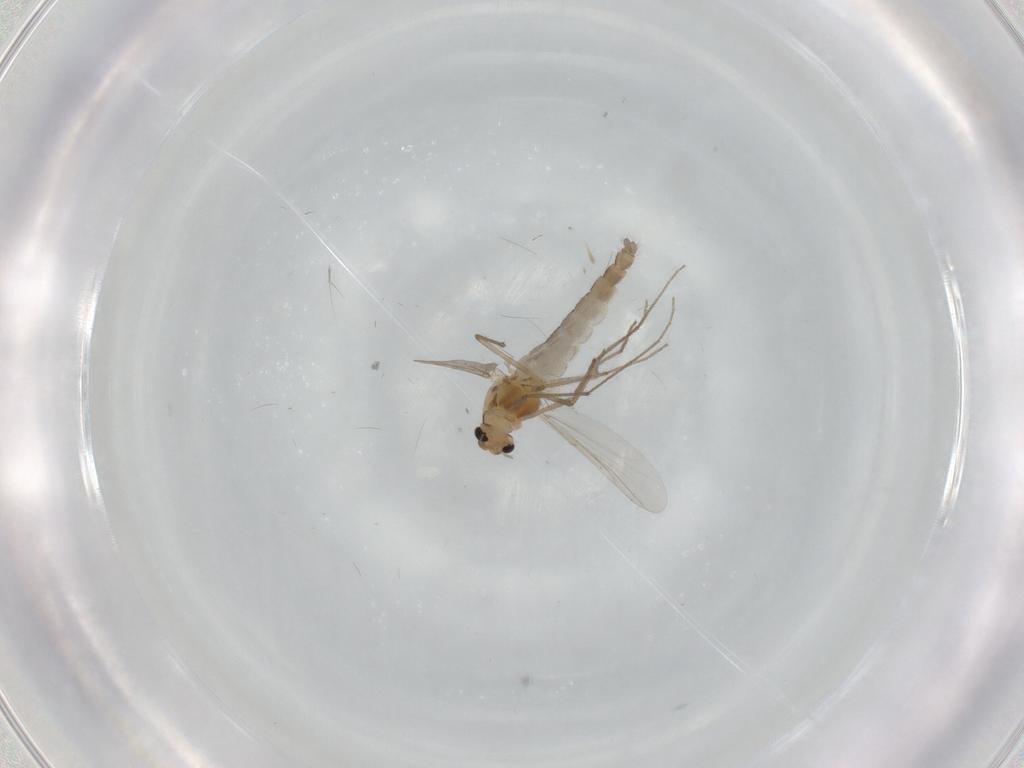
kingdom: Animalia
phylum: Arthropoda
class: Insecta
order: Diptera
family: Chironomidae
